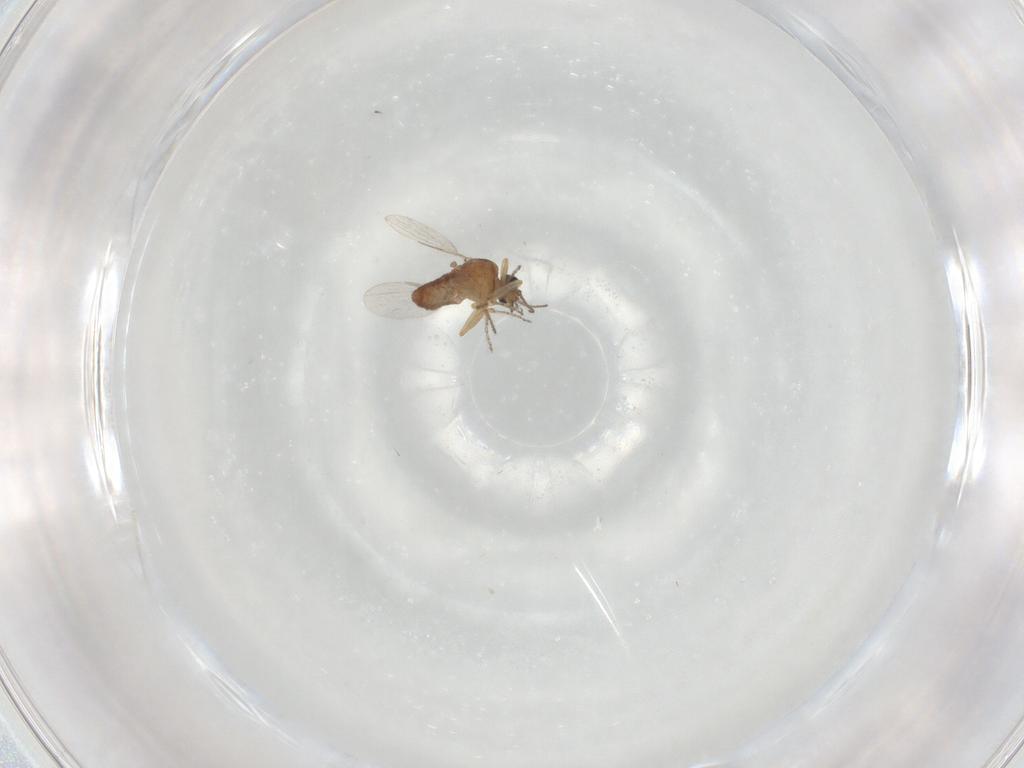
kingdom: Animalia
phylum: Arthropoda
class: Insecta
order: Diptera
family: Ceratopogonidae
